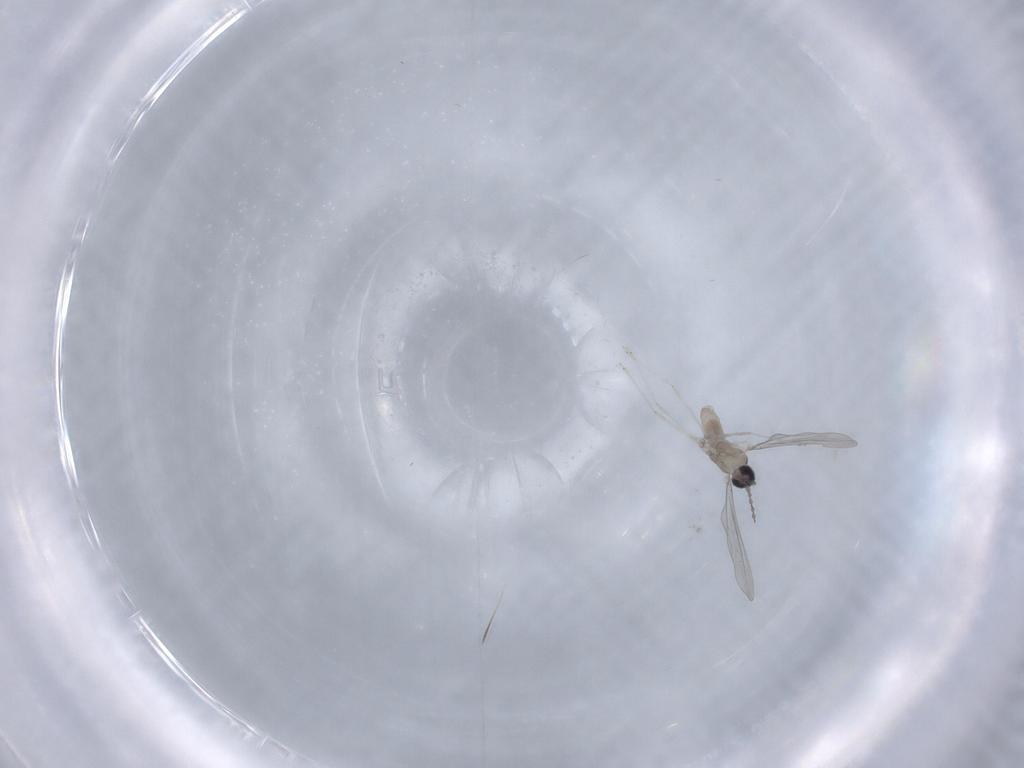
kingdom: Animalia
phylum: Arthropoda
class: Insecta
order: Diptera
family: Cecidomyiidae
